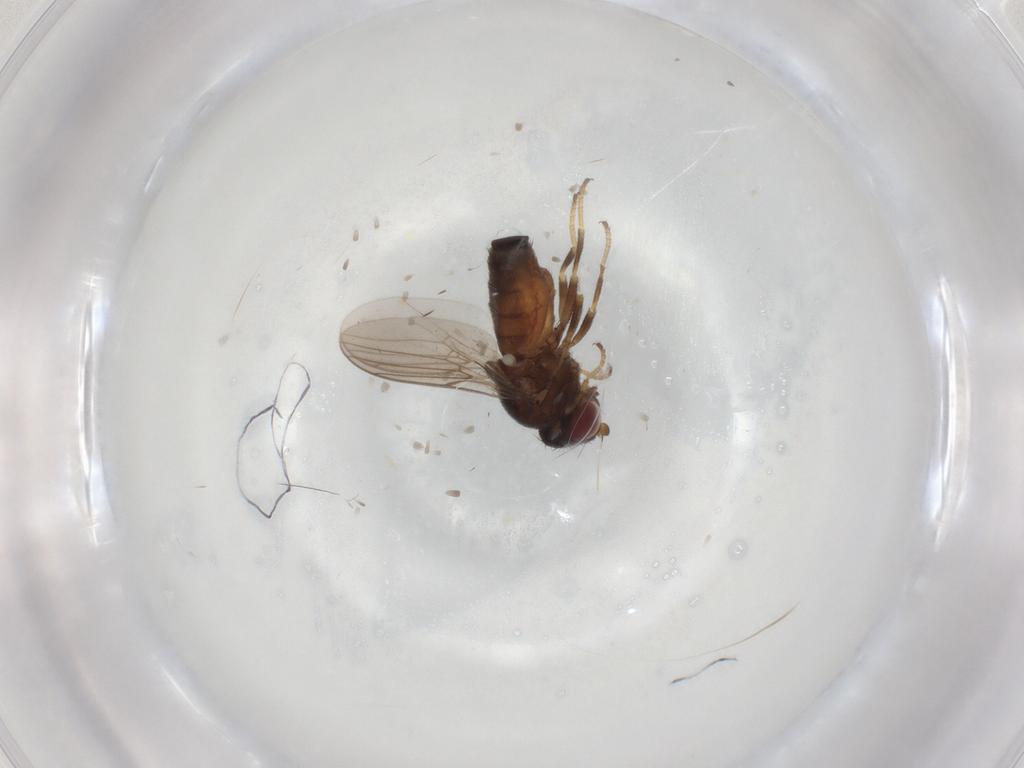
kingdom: Animalia
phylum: Arthropoda
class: Insecta
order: Diptera
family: Chloropidae
